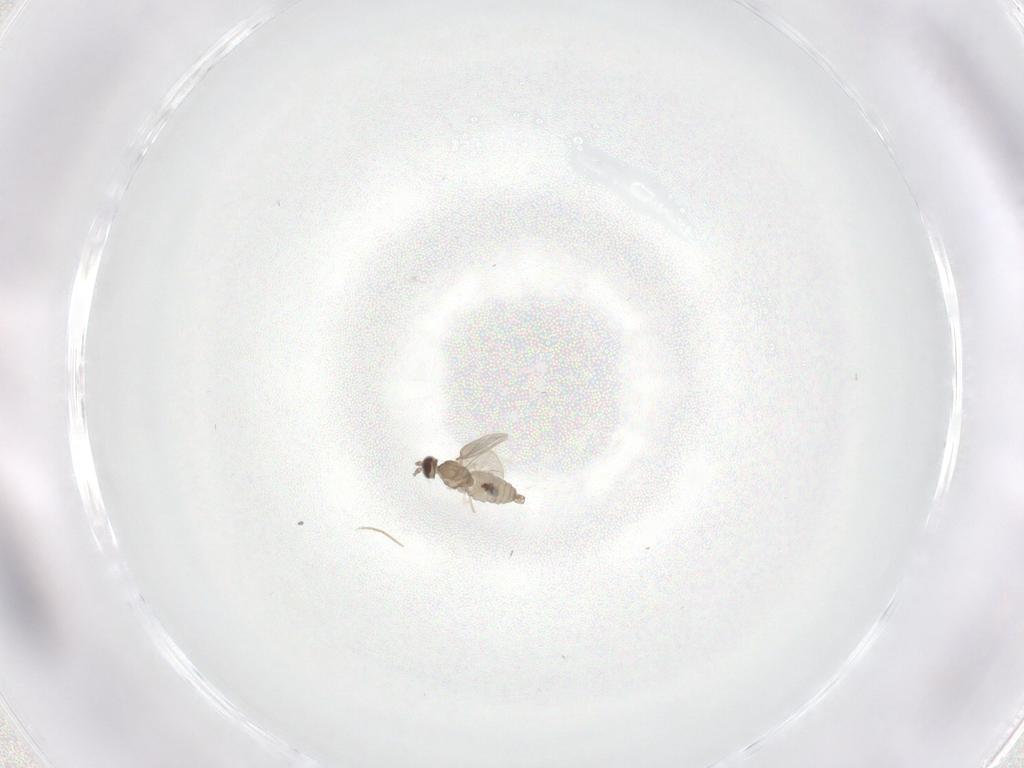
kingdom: Animalia
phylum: Arthropoda
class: Insecta
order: Diptera
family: Cecidomyiidae
